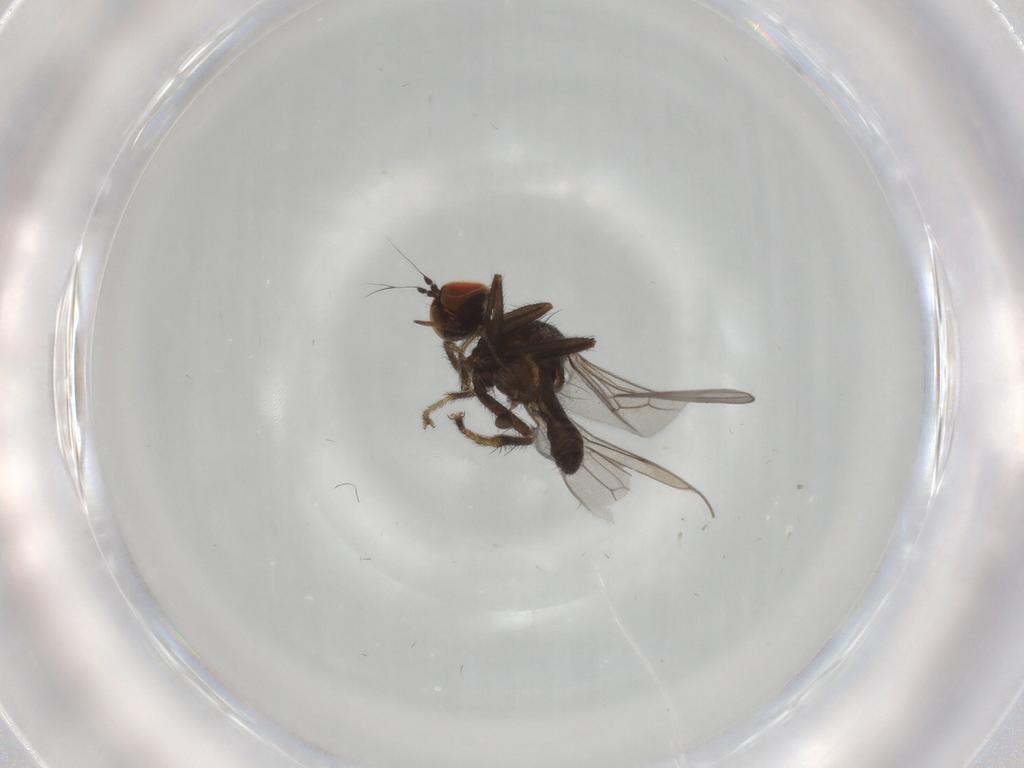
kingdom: Animalia
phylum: Arthropoda
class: Insecta
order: Diptera
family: Hybotidae
